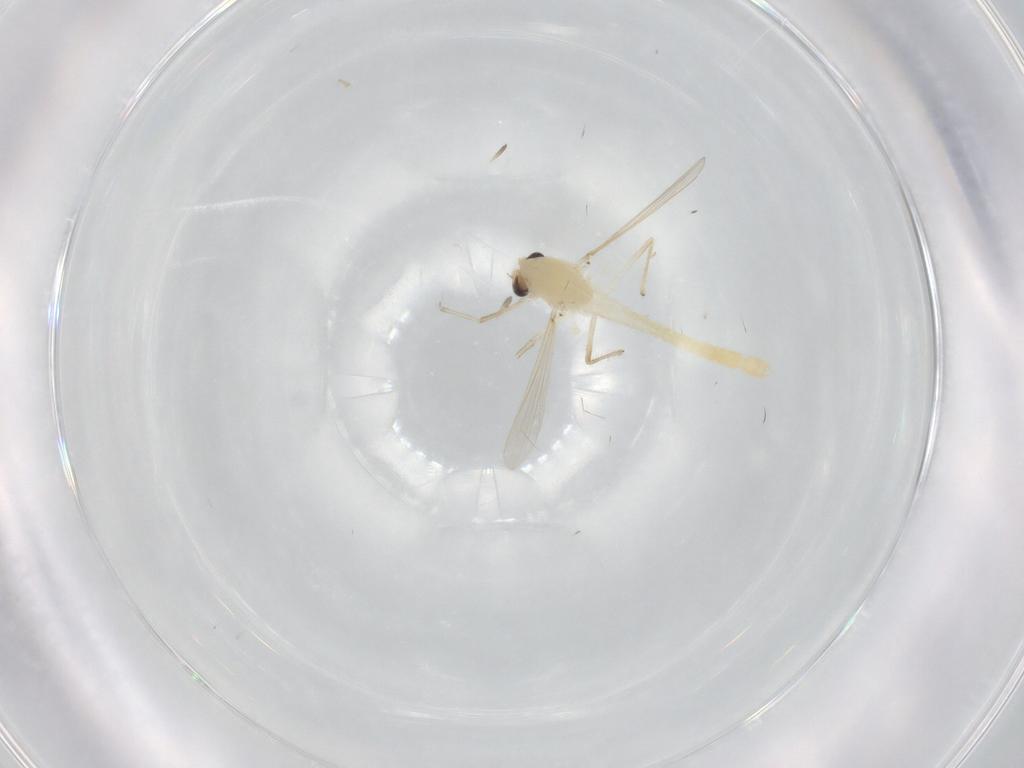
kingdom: Animalia
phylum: Arthropoda
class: Insecta
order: Diptera
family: Chironomidae
